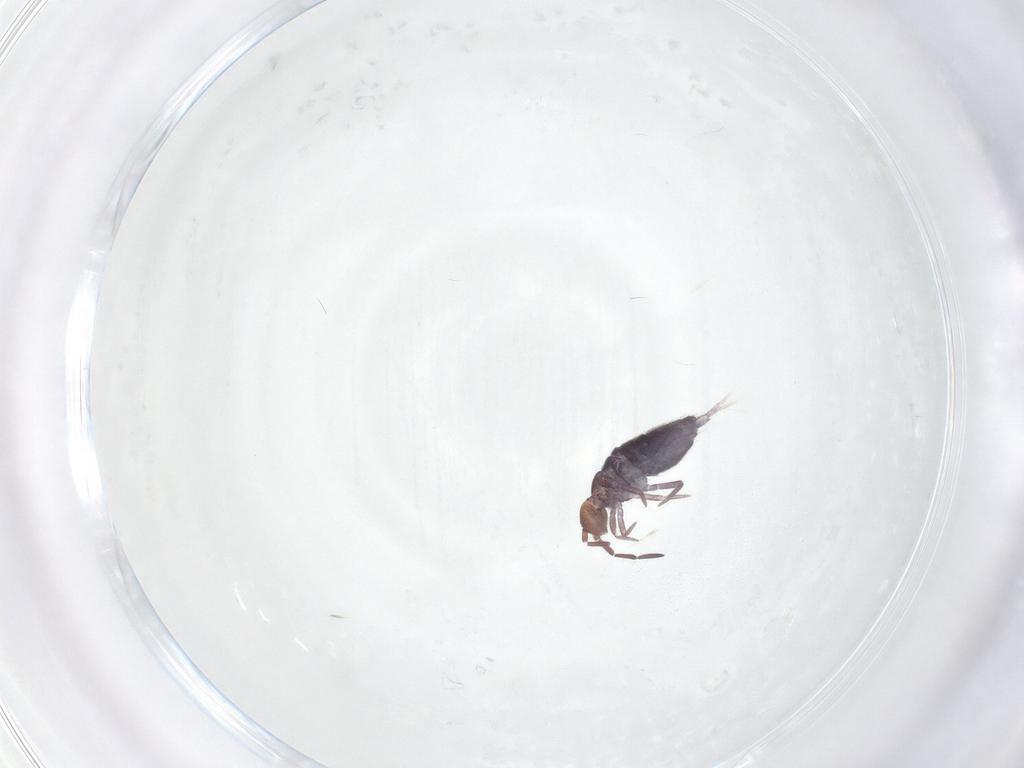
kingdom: Animalia
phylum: Arthropoda
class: Collembola
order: Entomobryomorpha
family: Entomobryidae
